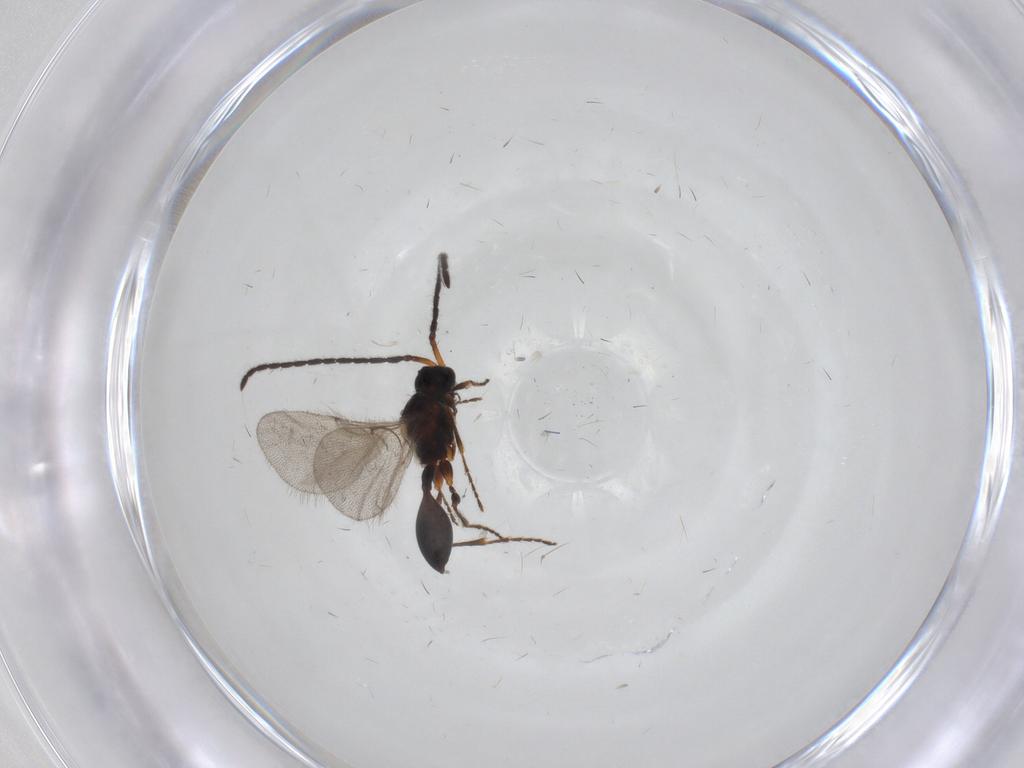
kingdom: Animalia
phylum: Arthropoda
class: Insecta
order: Hymenoptera
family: Diapriidae
